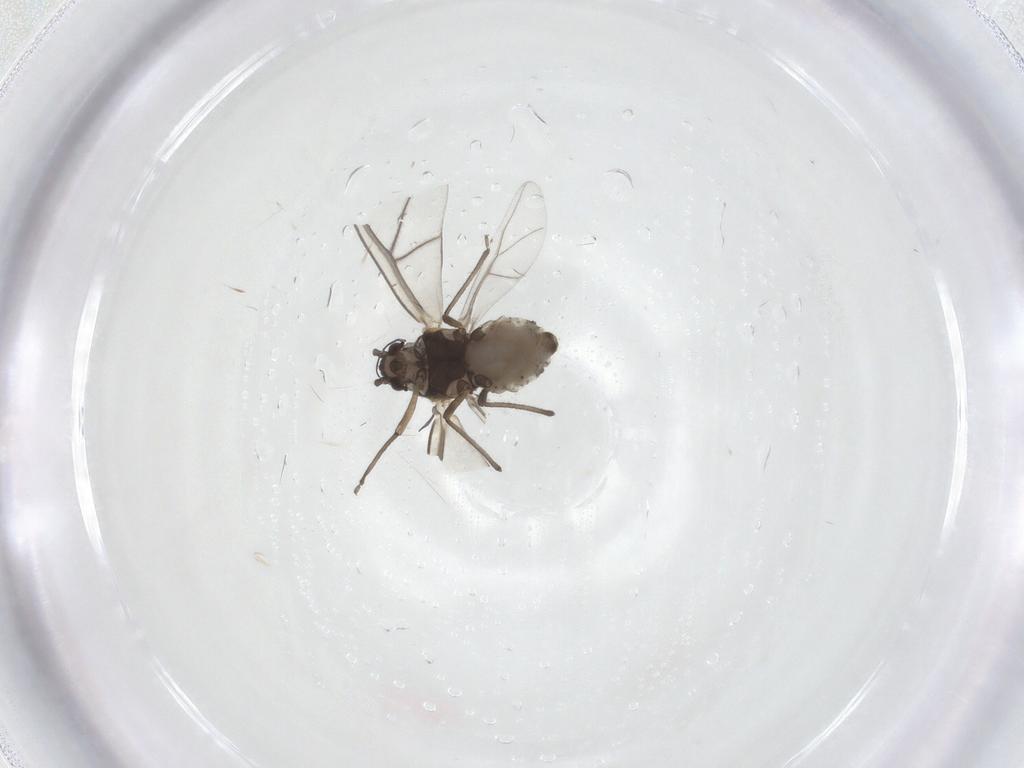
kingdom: Animalia
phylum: Arthropoda
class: Insecta
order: Hemiptera
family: Aphididae
